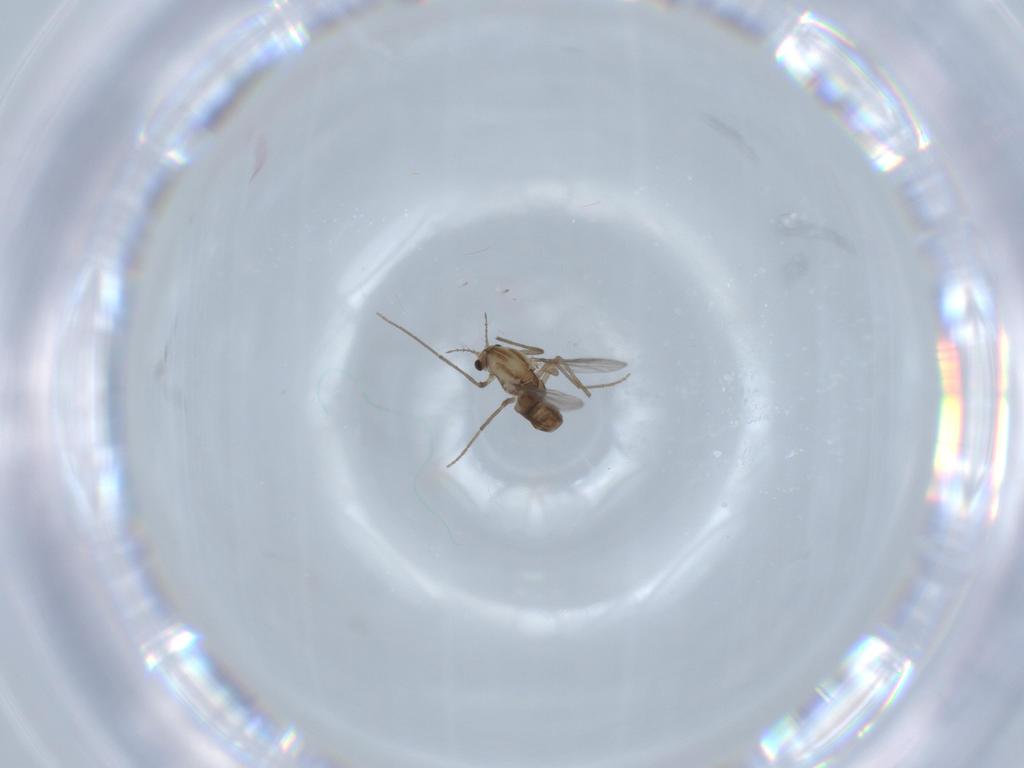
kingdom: Animalia
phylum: Arthropoda
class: Insecta
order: Diptera
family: Chironomidae
